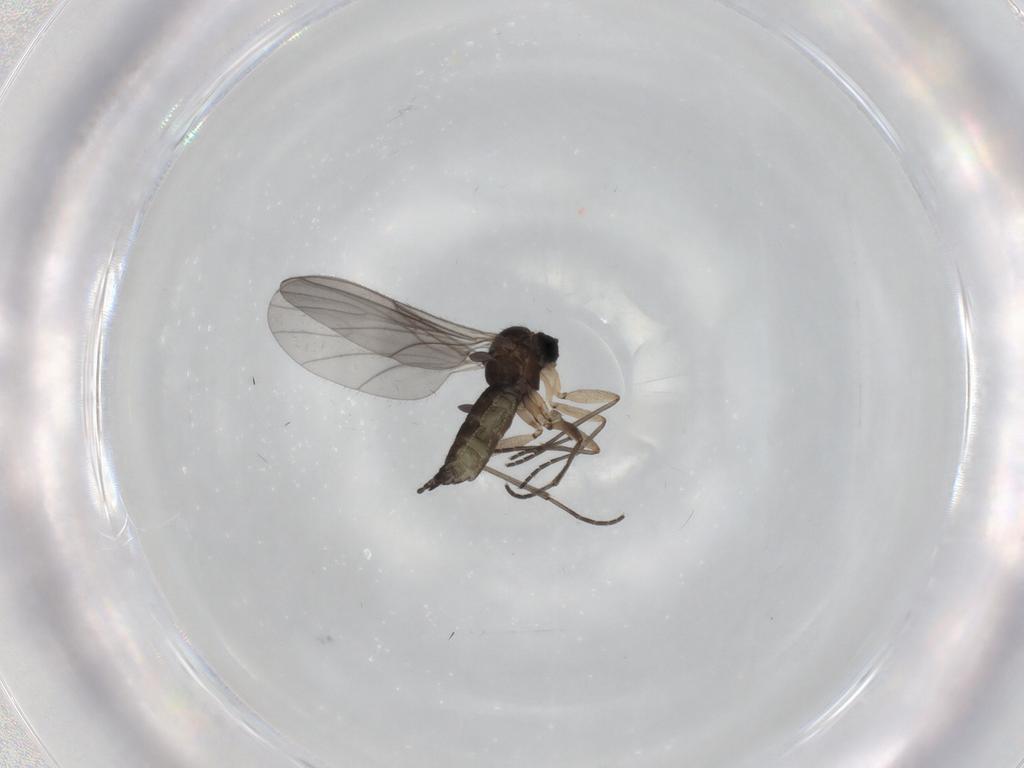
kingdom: Animalia
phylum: Arthropoda
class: Insecta
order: Diptera
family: Sciaridae
